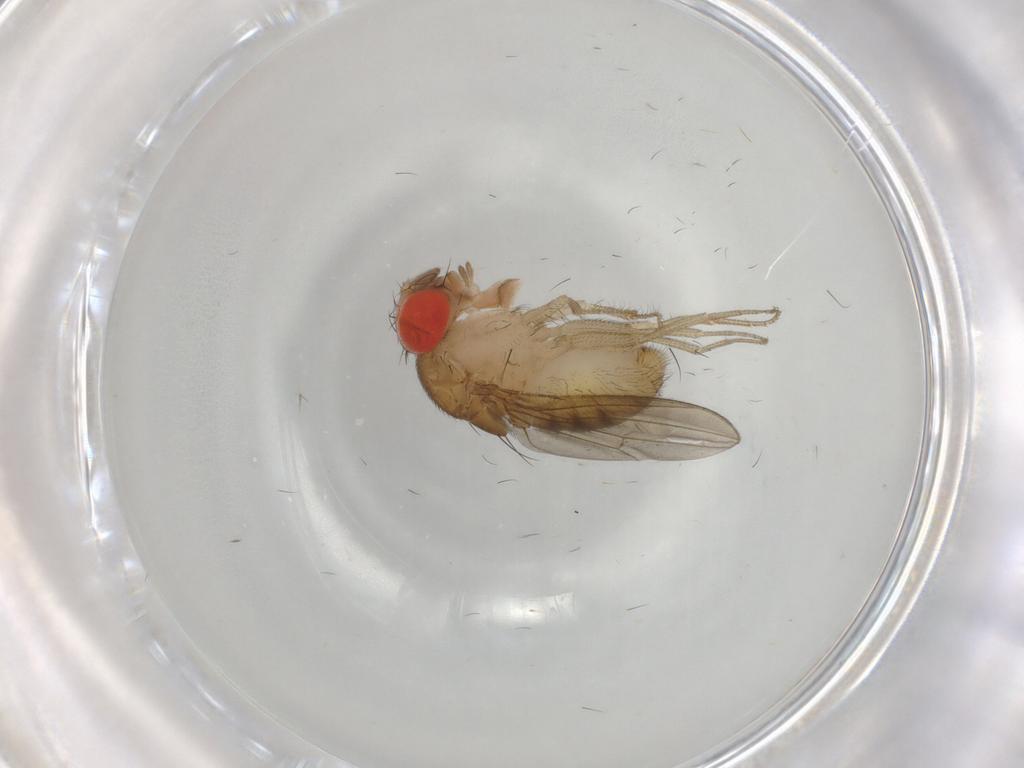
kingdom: Animalia
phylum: Arthropoda
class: Insecta
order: Diptera
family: Drosophilidae
